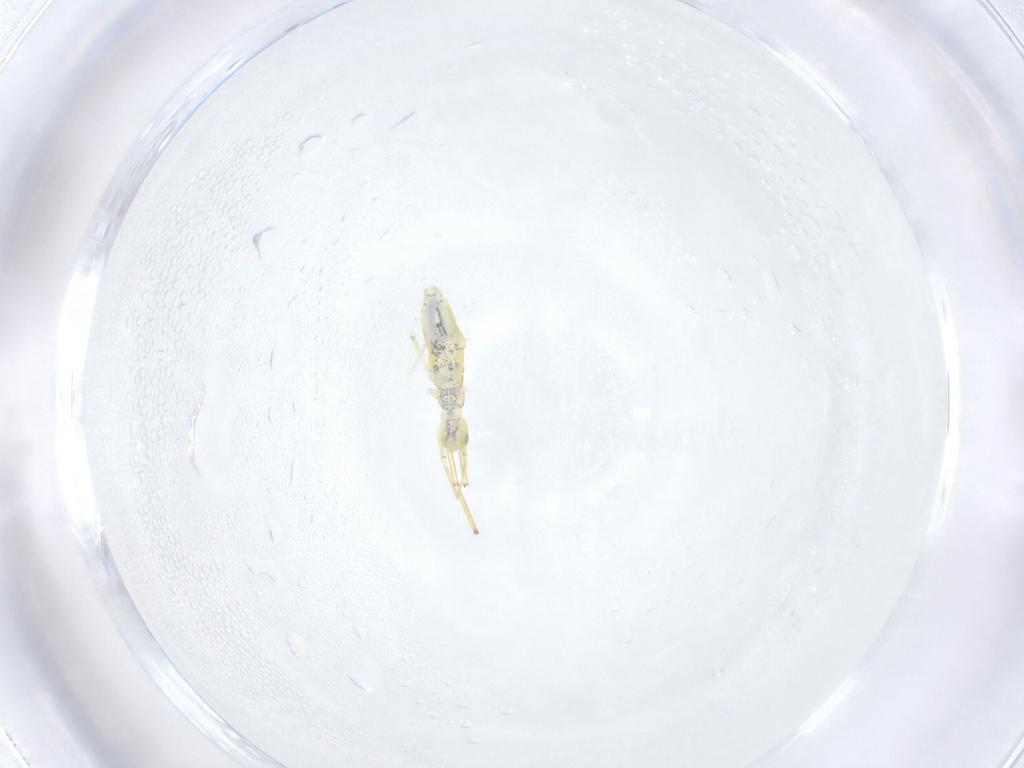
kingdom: Animalia
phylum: Arthropoda
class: Collembola
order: Entomobryomorpha
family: Paronellidae
